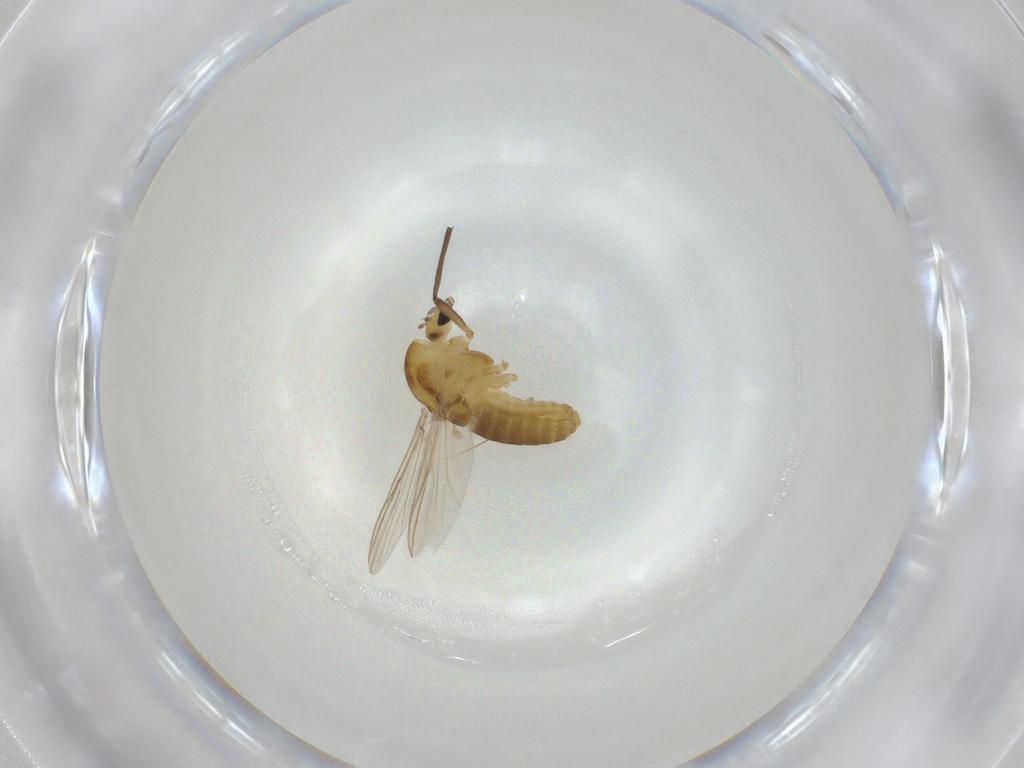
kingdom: Animalia
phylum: Arthropoda
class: Insecta
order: Diptera
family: Chironomidae
